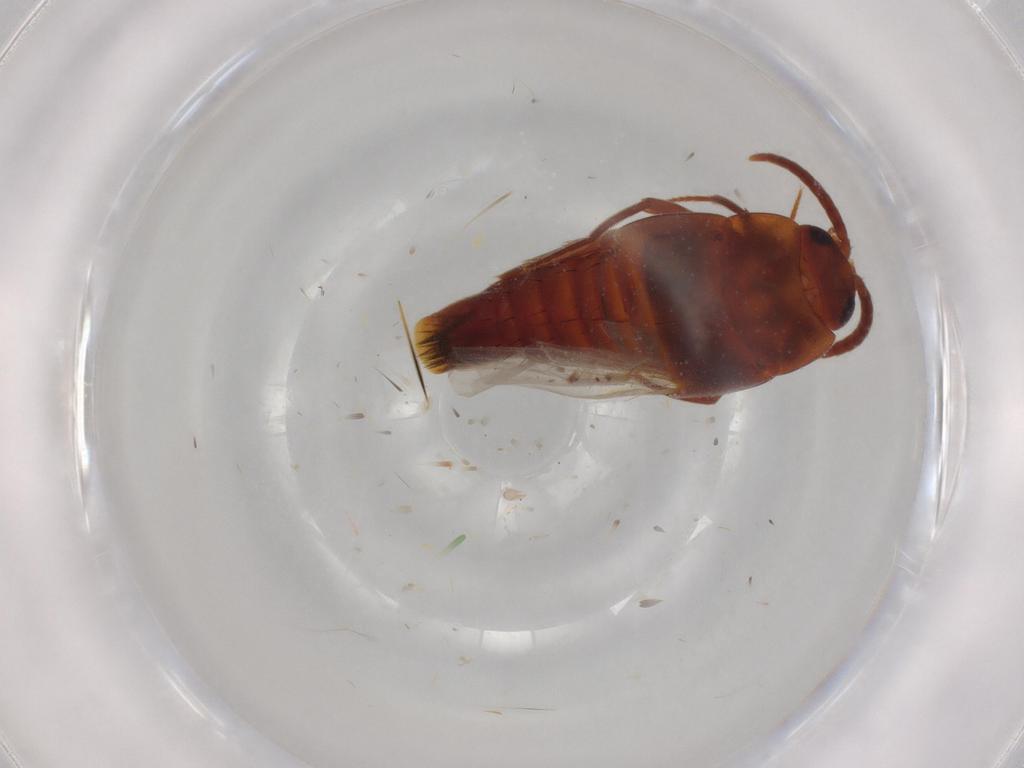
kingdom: Animalia
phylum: Arthropoda
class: Insecta
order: Coleoptera
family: Staphylinidae
